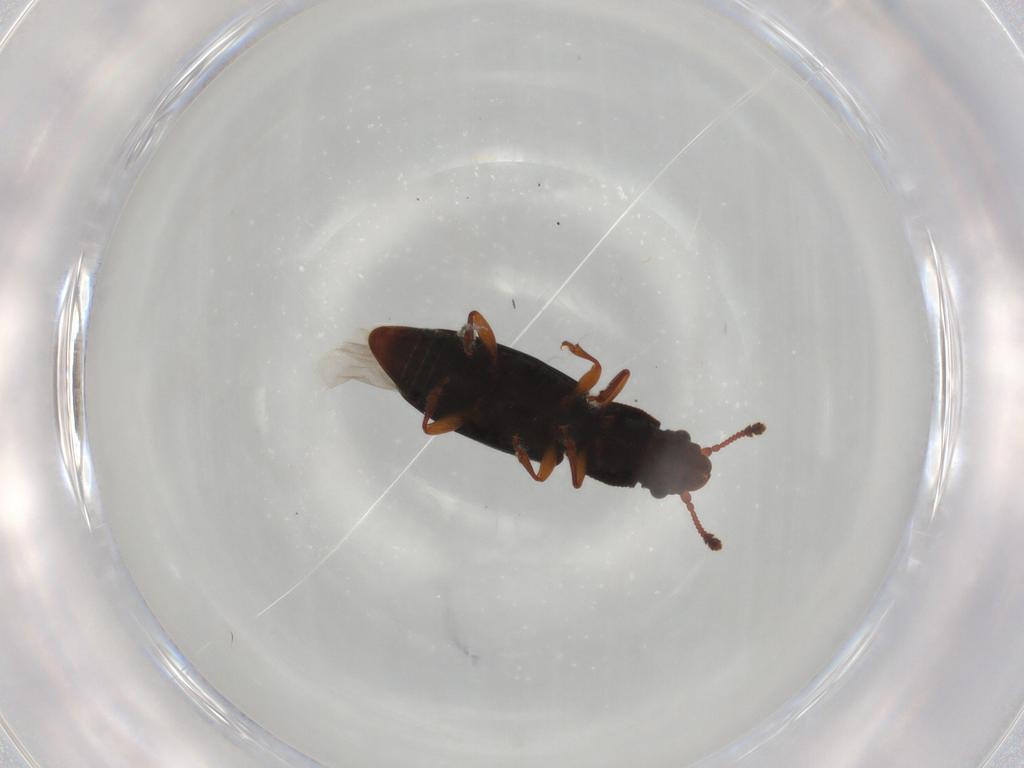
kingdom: Animalia
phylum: Arthropoda
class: Insecta
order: Coleoptera
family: Monotomidae
